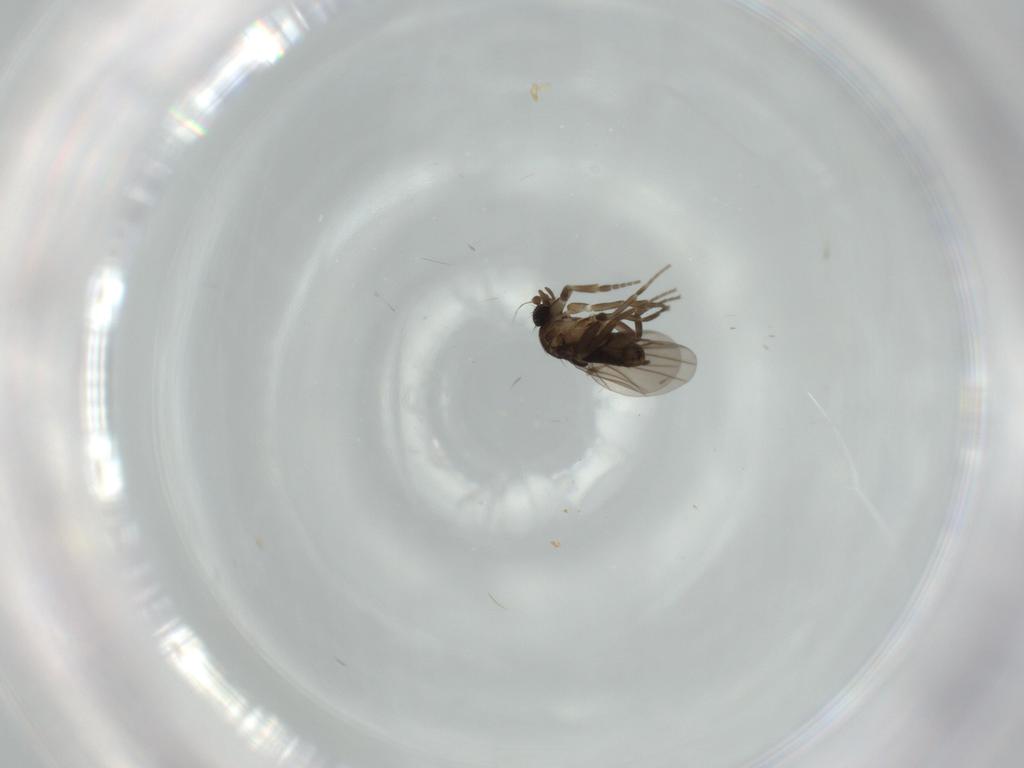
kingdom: Animalia
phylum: Arthropoda
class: Insecta
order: Diptera
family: Phoridae
